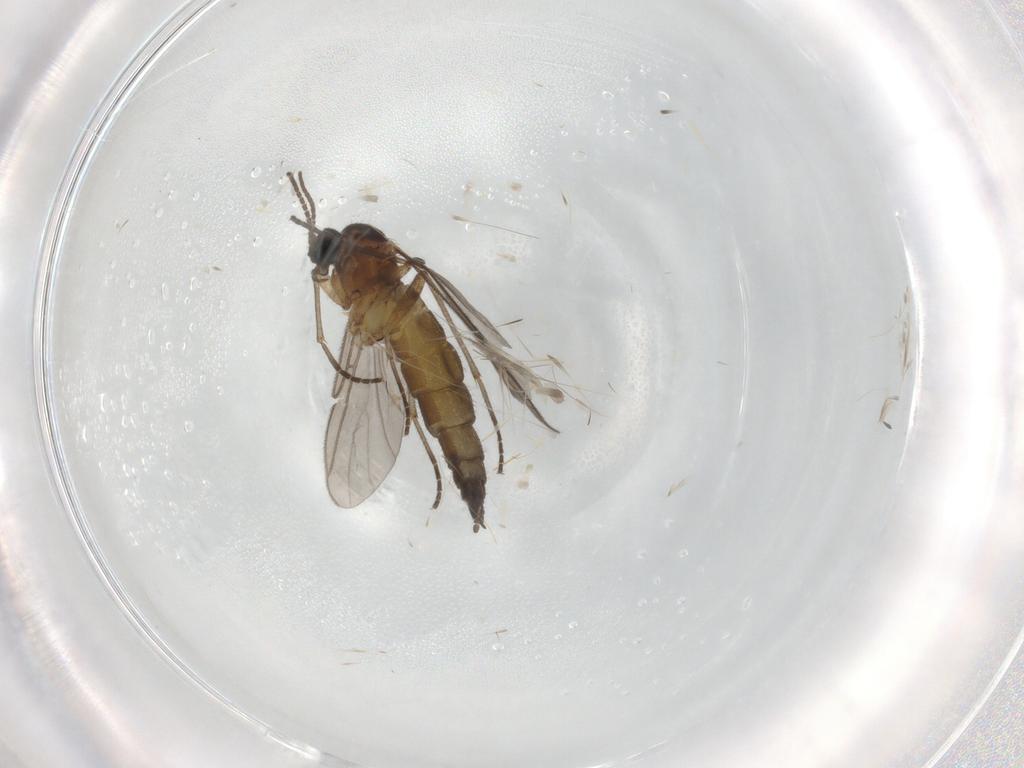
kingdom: Animalia
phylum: Arthropoda
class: Insecta
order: Diptera
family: Sciaridae
